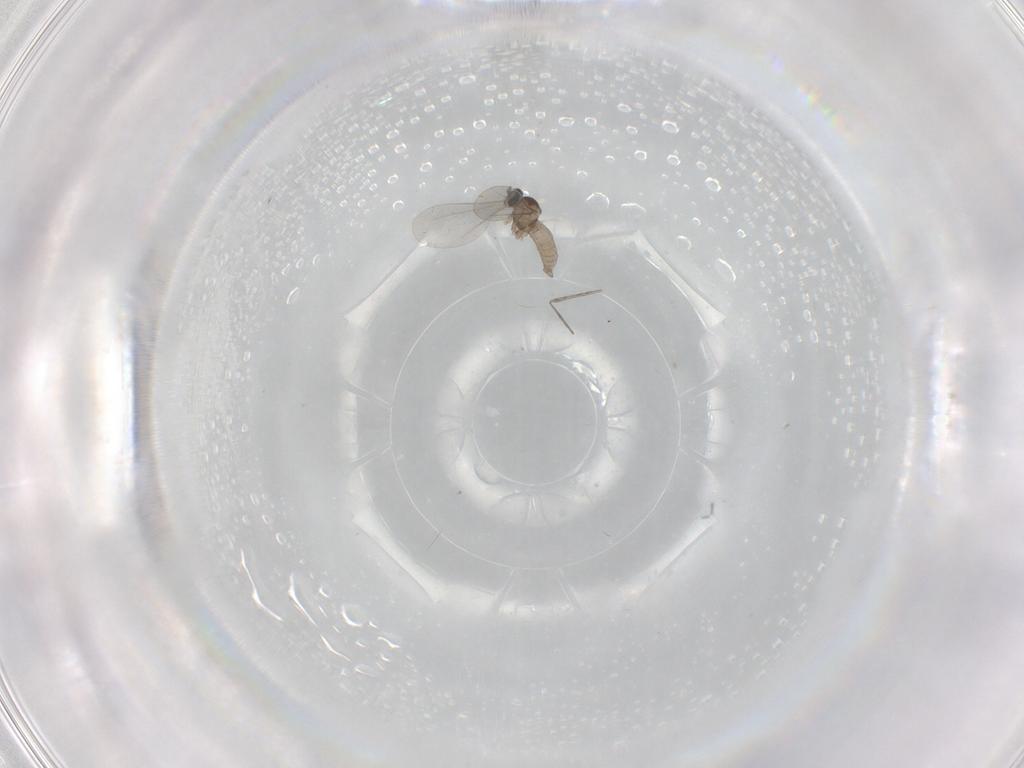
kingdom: Animalia
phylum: Arthropoda
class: Insecta
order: Diptera
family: Cecidomyiidae
